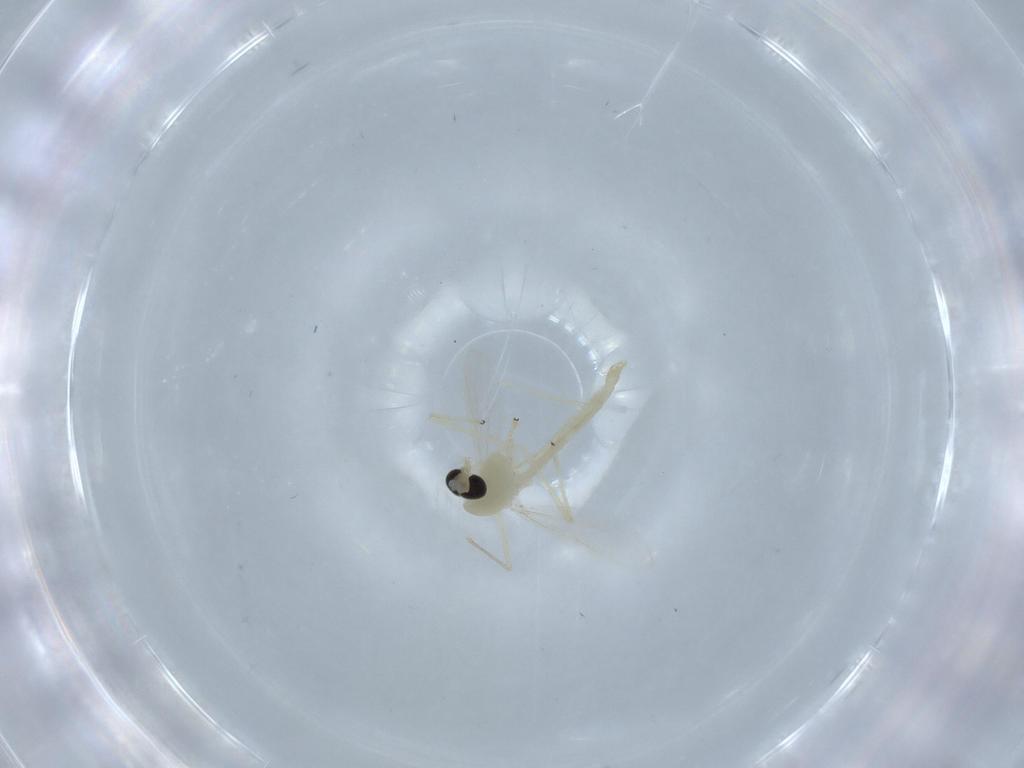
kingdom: Animalia
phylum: Arthropoda
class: Insecta
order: Diptera
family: Chironomidae
